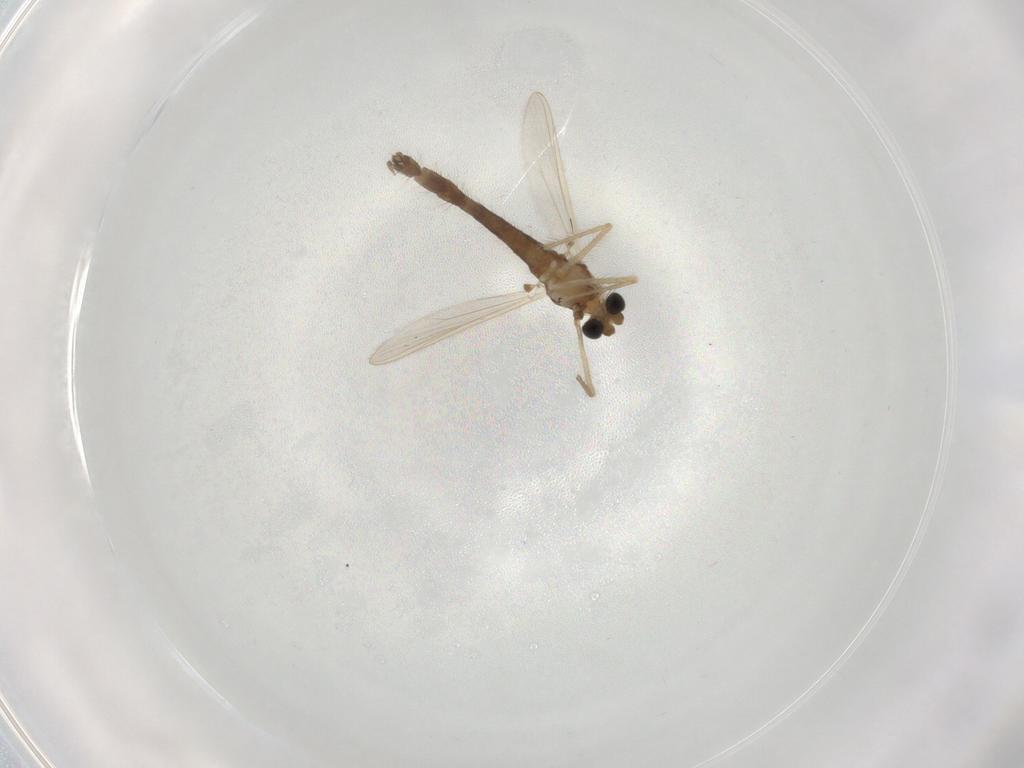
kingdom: Animalia
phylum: Arthropoda
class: Insecta
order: Diptera
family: Chironomidae
